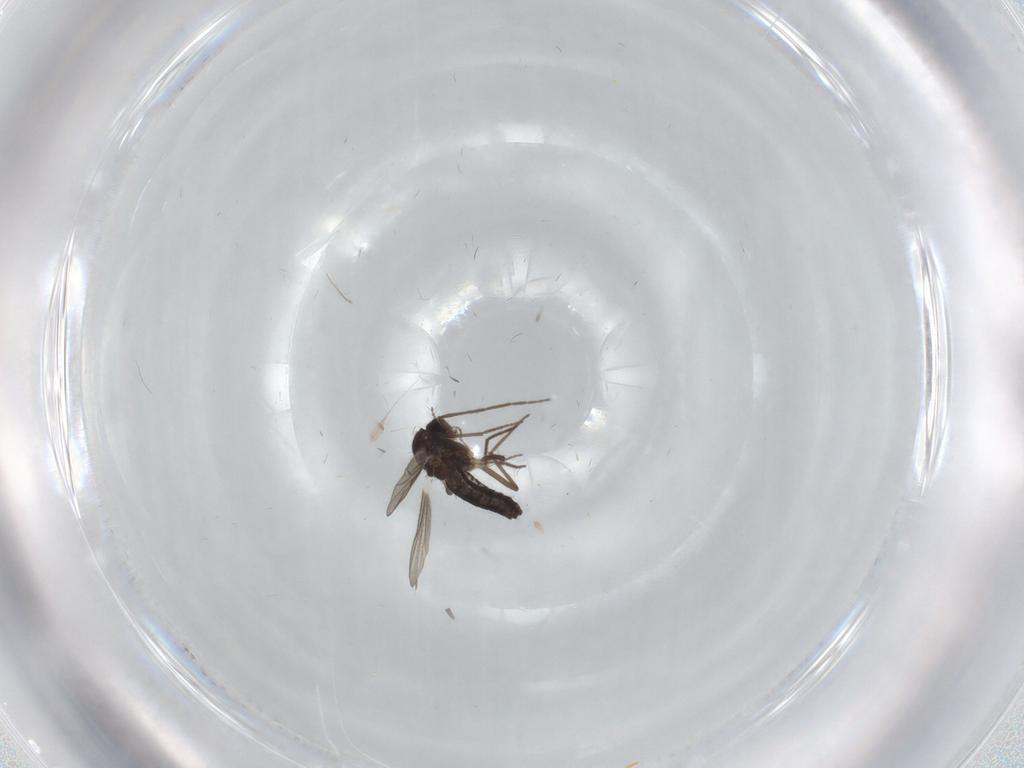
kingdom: Animalia
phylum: Arthropoda
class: Insecta
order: Diptera
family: Chironomidae
